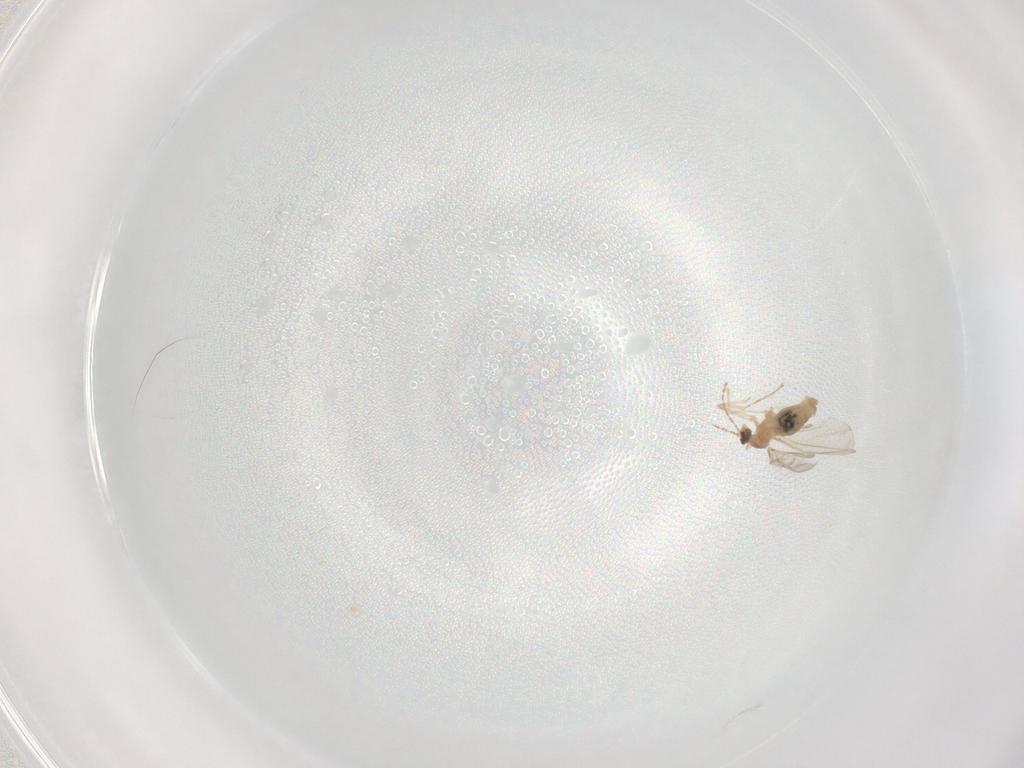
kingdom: Animalia
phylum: Arthropoda
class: Insecta
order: Diptera
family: Cecidomyiidae
